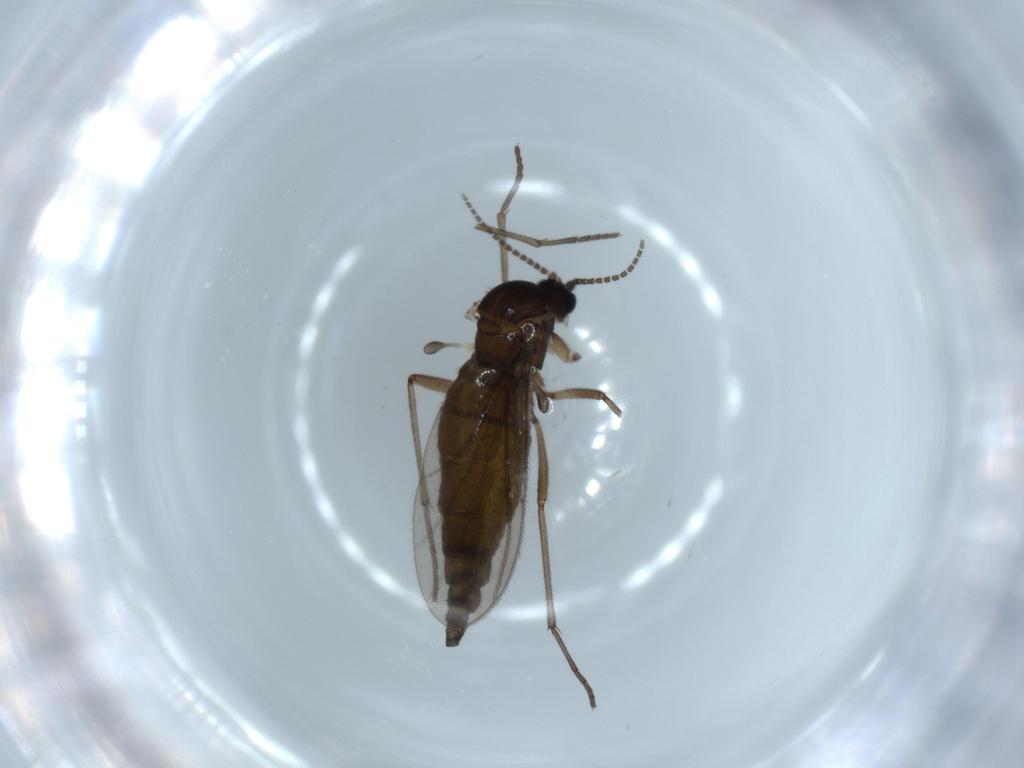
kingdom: Animalia
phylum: Arthropoda
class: Insecta
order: Diptera
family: Sciaridae
